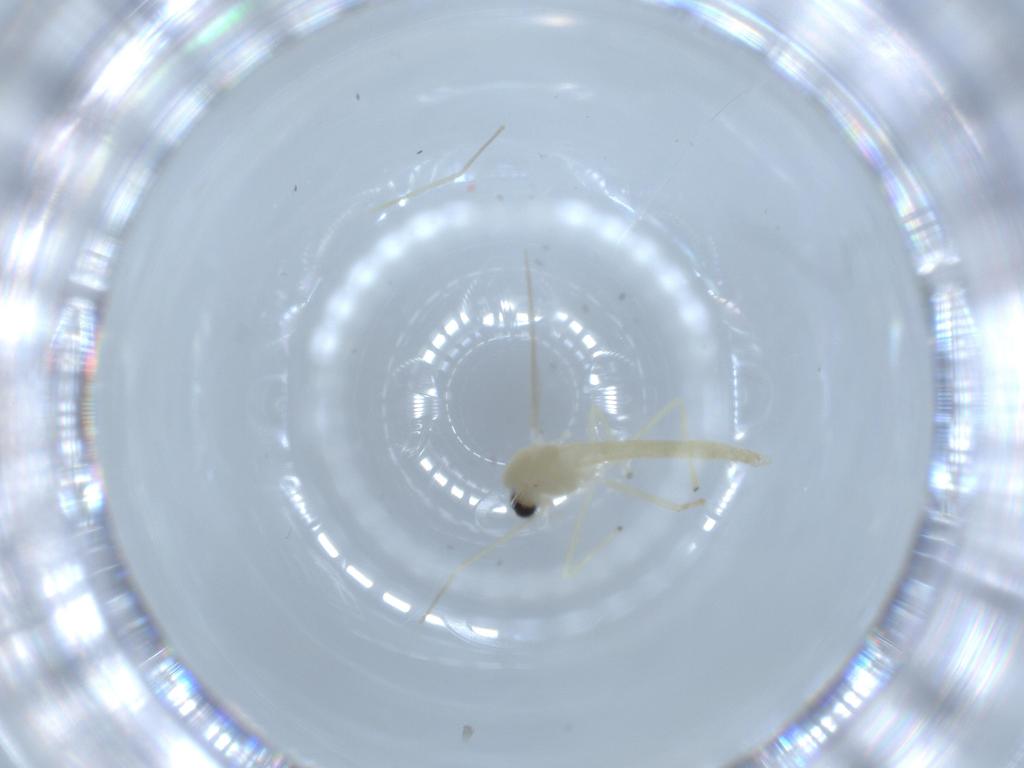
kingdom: Animalia
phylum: Arthropoda
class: Insecta
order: Diptera
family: Chironomidae
